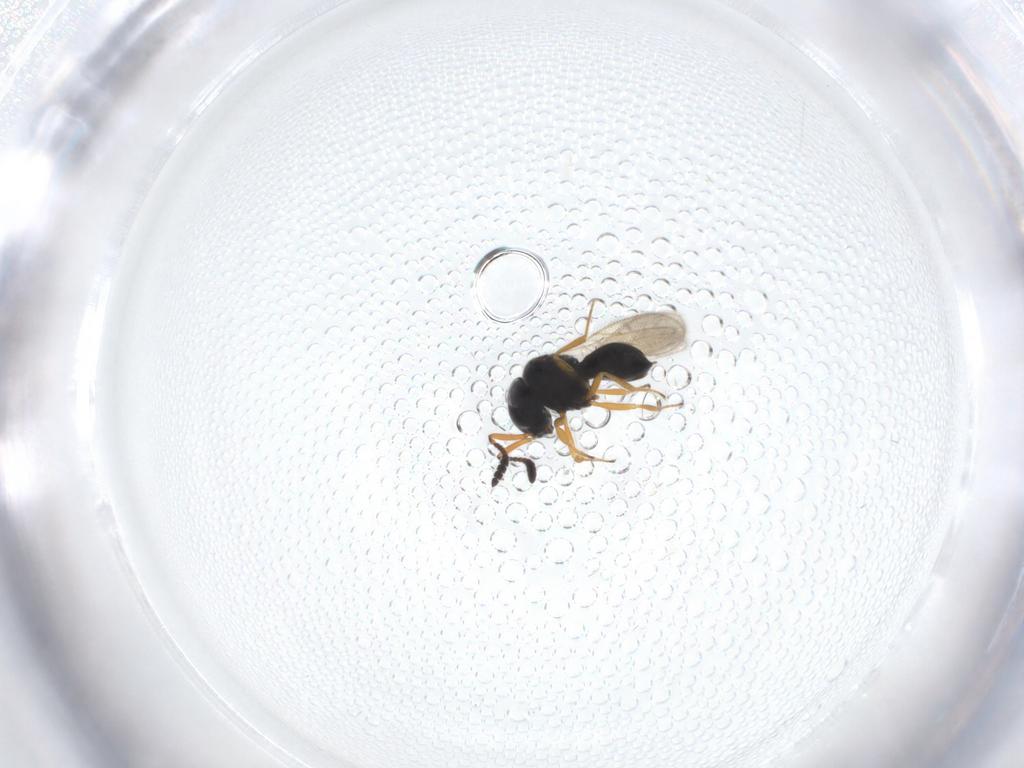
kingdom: Animalia
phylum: Arthropoda
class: Insecta
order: Hymenoptera
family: Scelionidae
